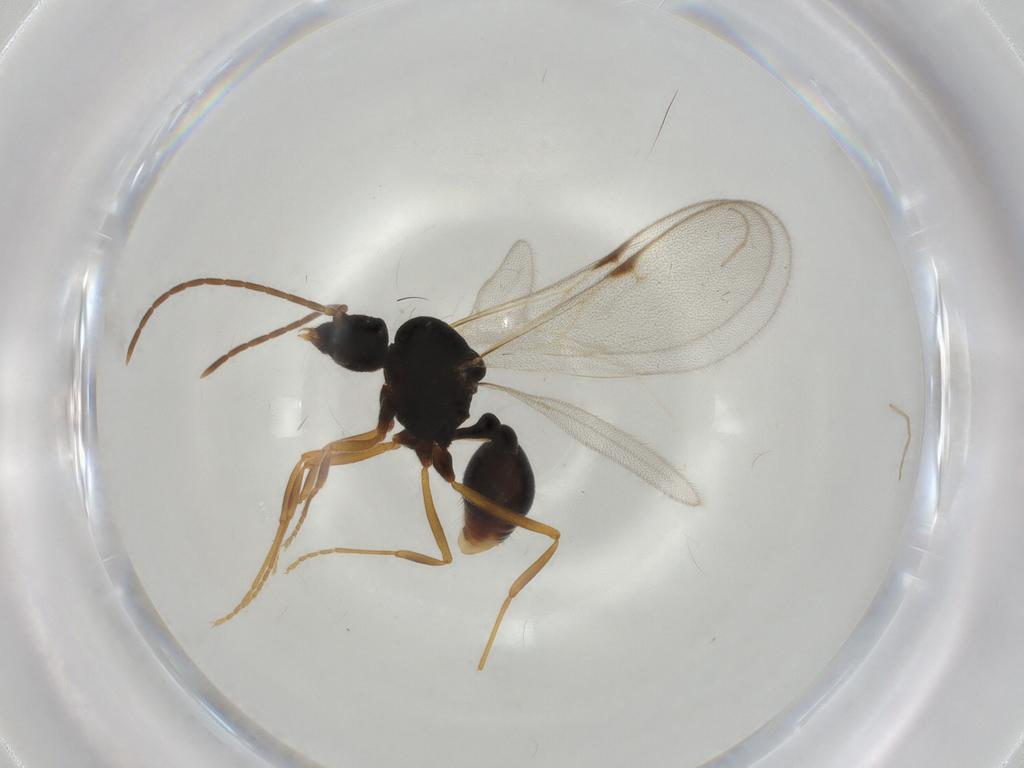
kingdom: Animalia
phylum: Arthropoda
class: Insecta
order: Hymenoptera
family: Formicidae
